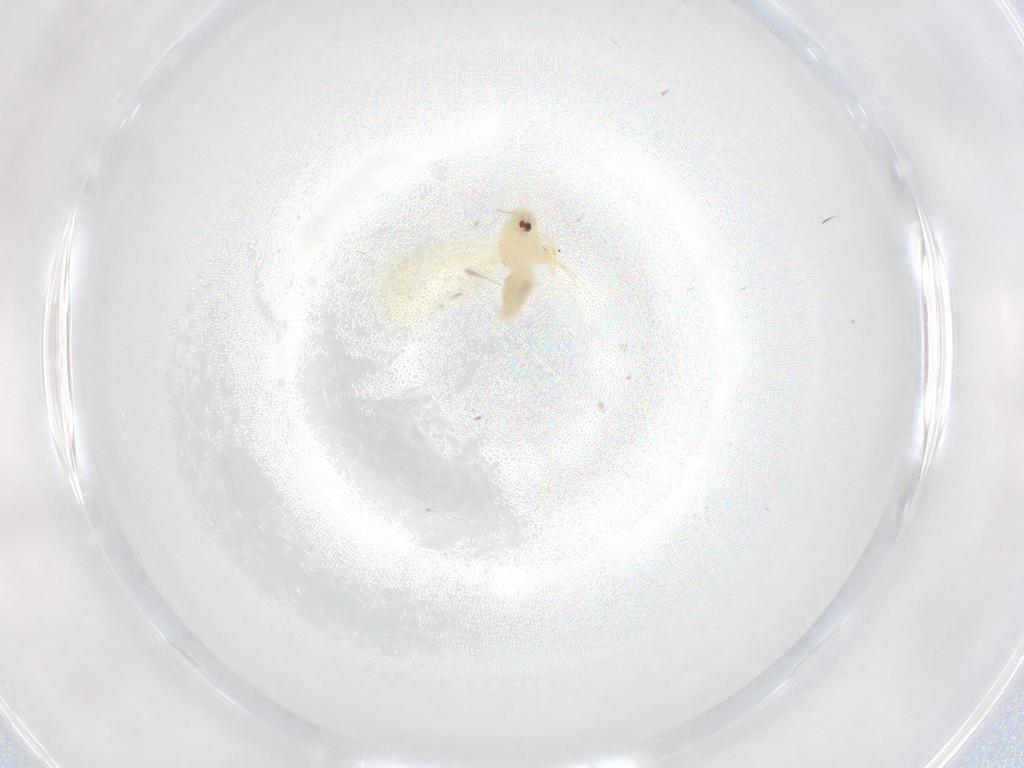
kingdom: Animalia
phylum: Arthropoda
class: Insecta
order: Hemiptera
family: Aleyrodidae
